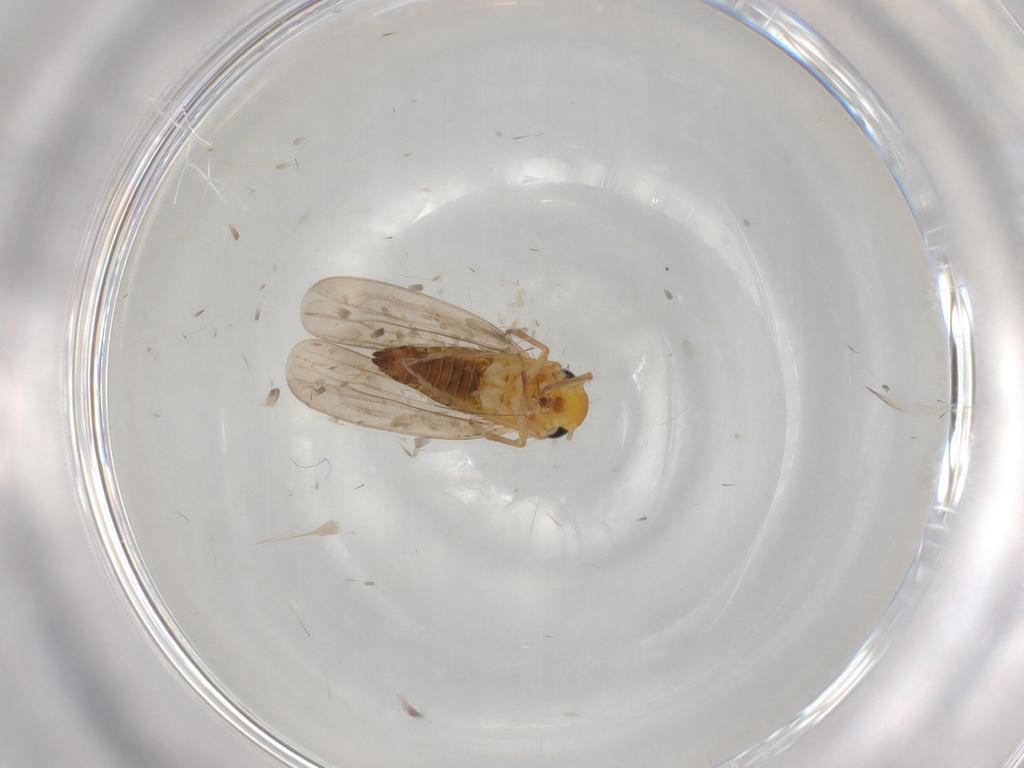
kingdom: Animalia
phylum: Arthropoda
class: Insecta
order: Hemiptera
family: Cicadellidae
